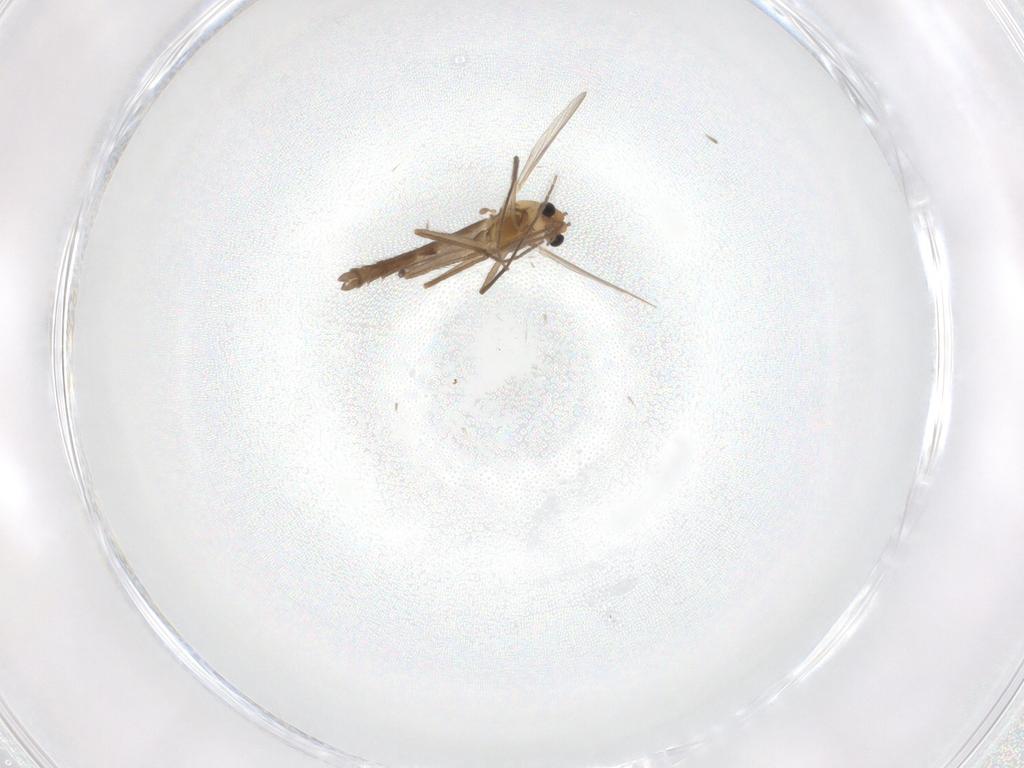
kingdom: Animalia
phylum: Arthropoda
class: Insecta
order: Diptera
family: Chironomidae
